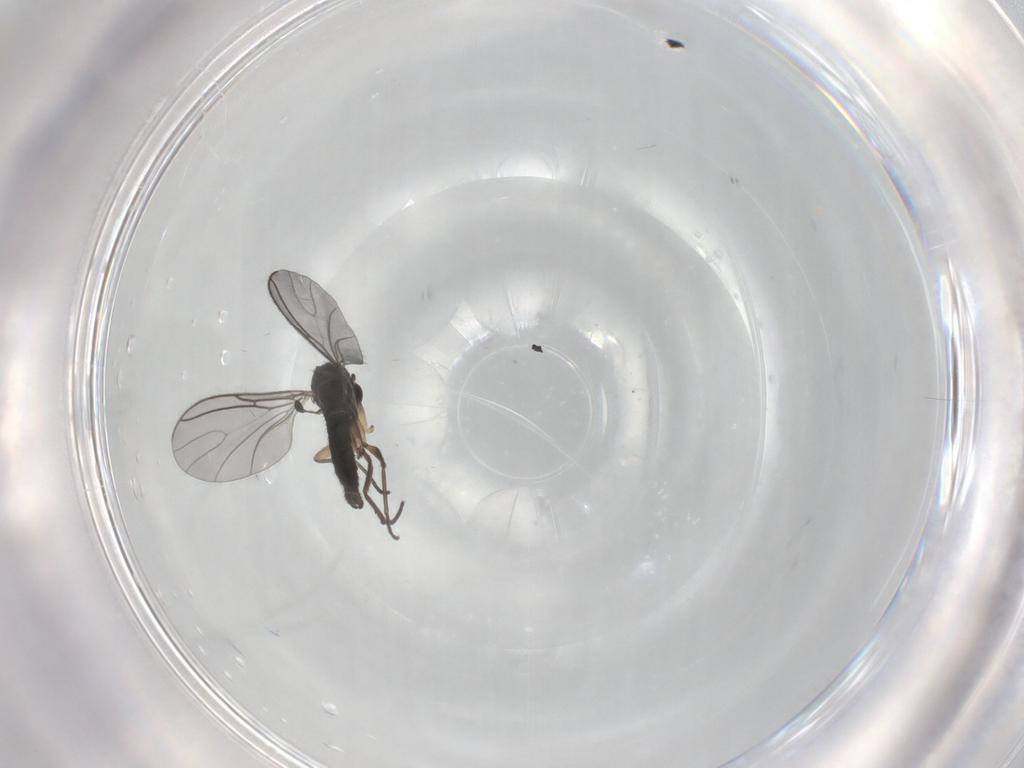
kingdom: Animalia
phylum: Arthropoda
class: Insecta
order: Diptera
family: Sciaridae
